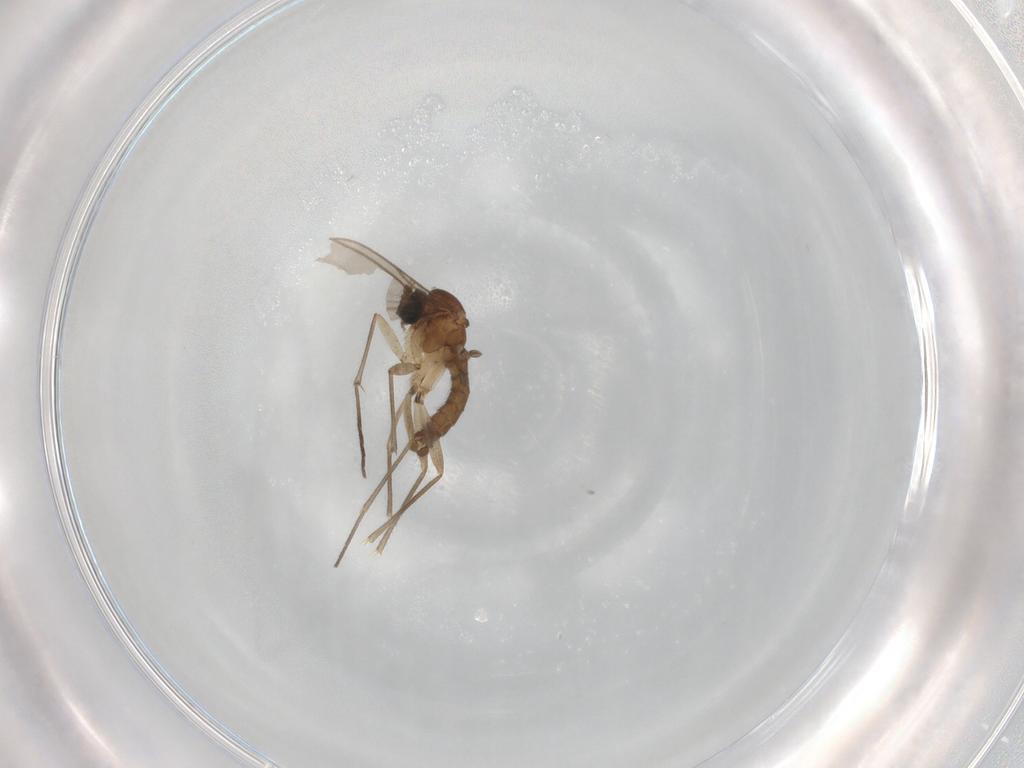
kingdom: Animalia
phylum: Arthropoda
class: Insecta
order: Diptera
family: Sciaridae
